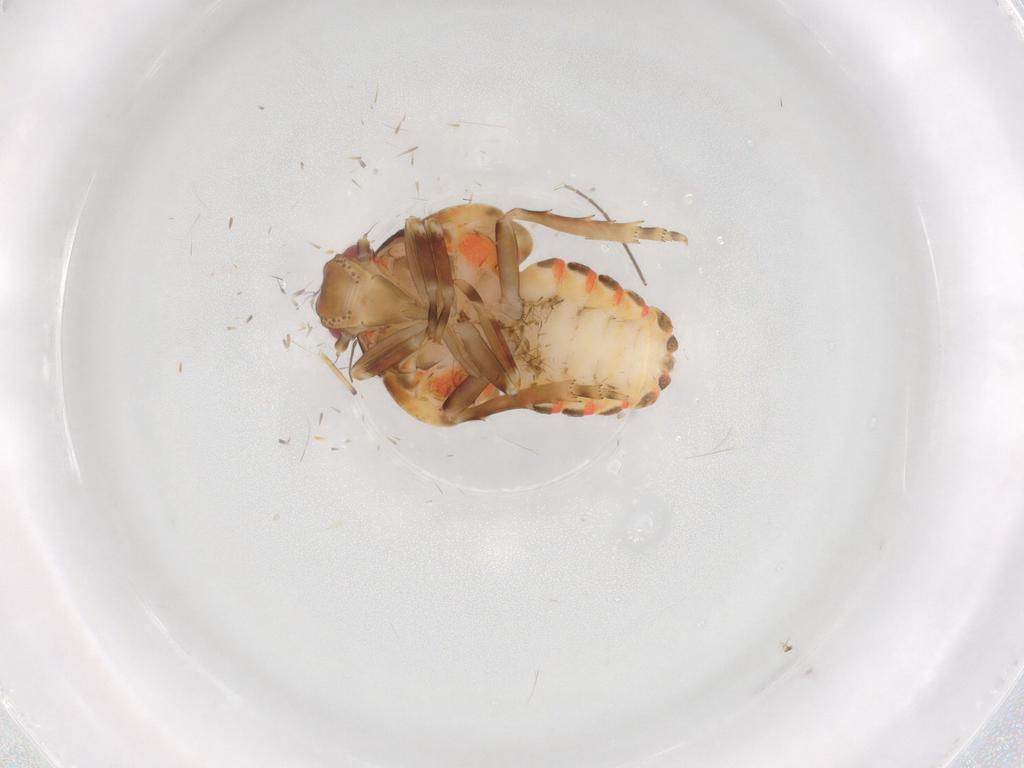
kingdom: Animalia
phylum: Arthropoda
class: Insecta
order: Hemiptera
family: Flatidae
